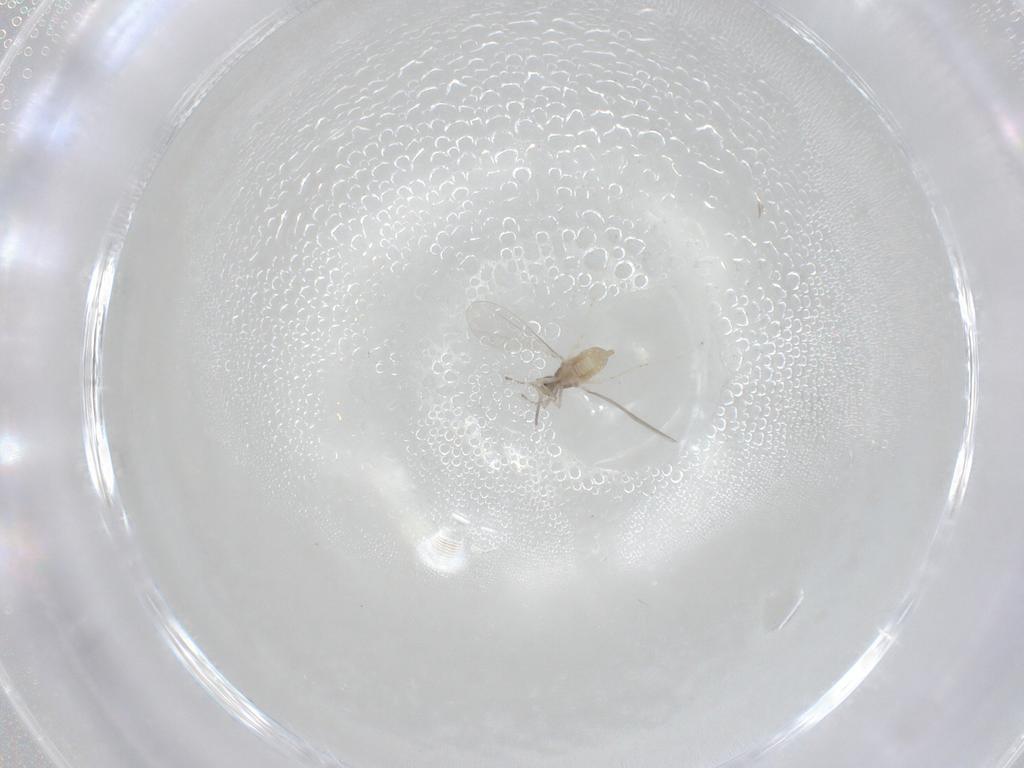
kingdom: Animalia
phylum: Arthropoda
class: Insecta
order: Diptera
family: Cecidomyiidae
